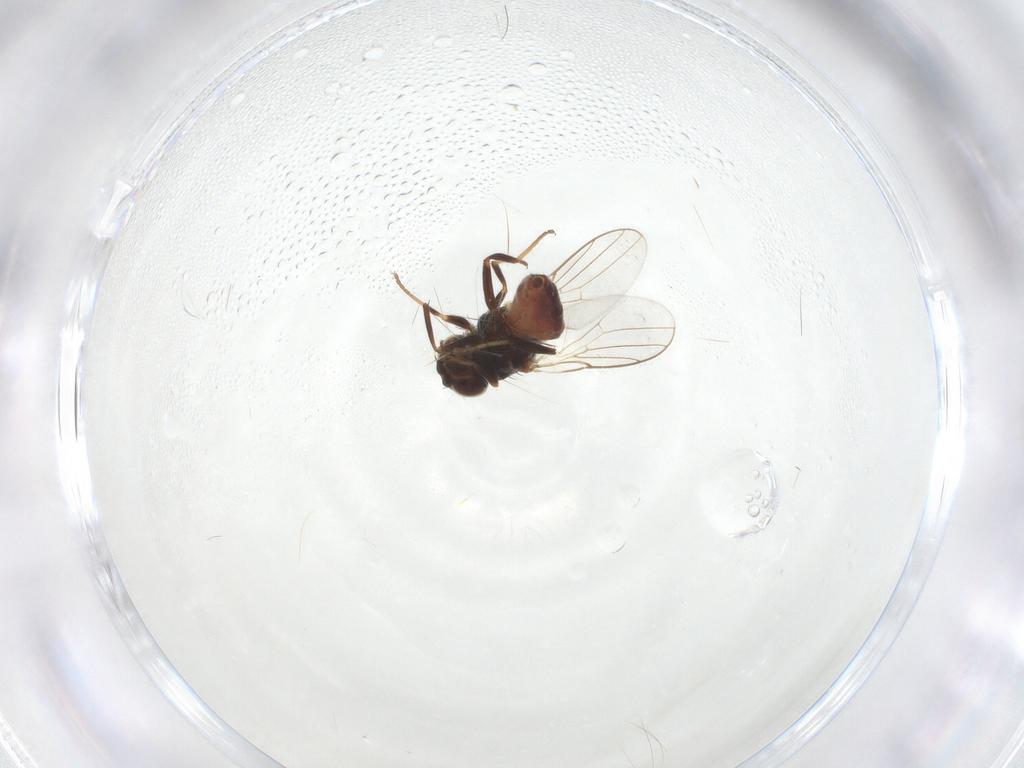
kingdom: Animalia
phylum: Arthropoda
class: Insecta
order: Diptera
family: Chloropidae
